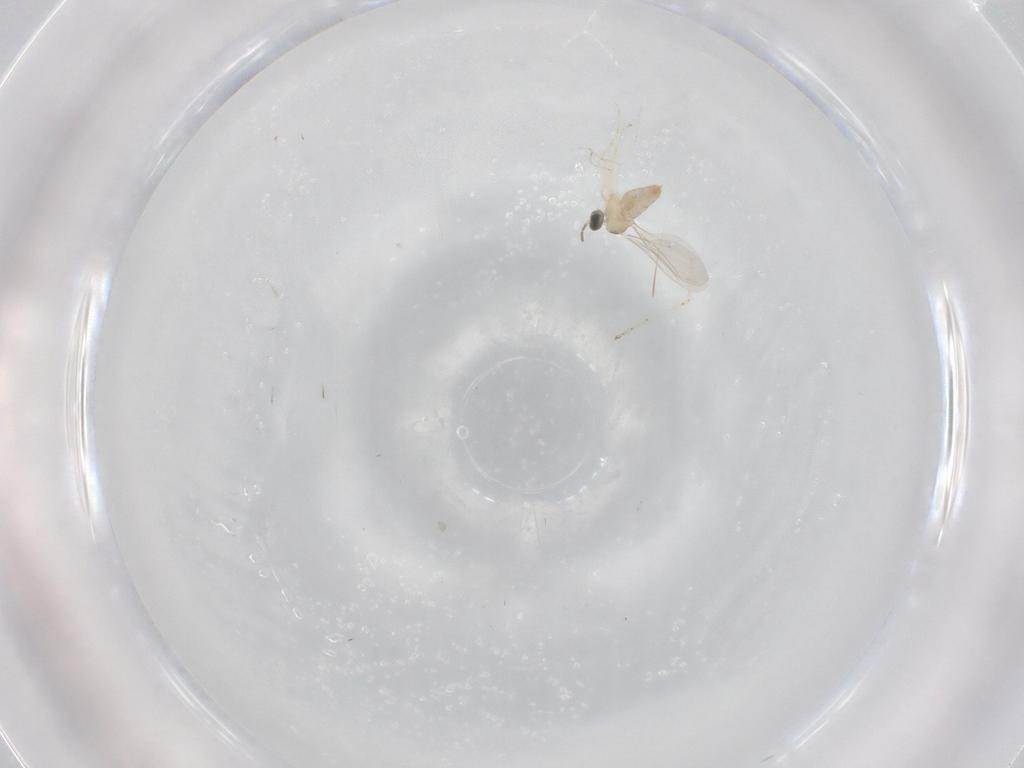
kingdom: Animalia
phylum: Arthropoda
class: Insecta
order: Diptera
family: Cecidomyiidae
